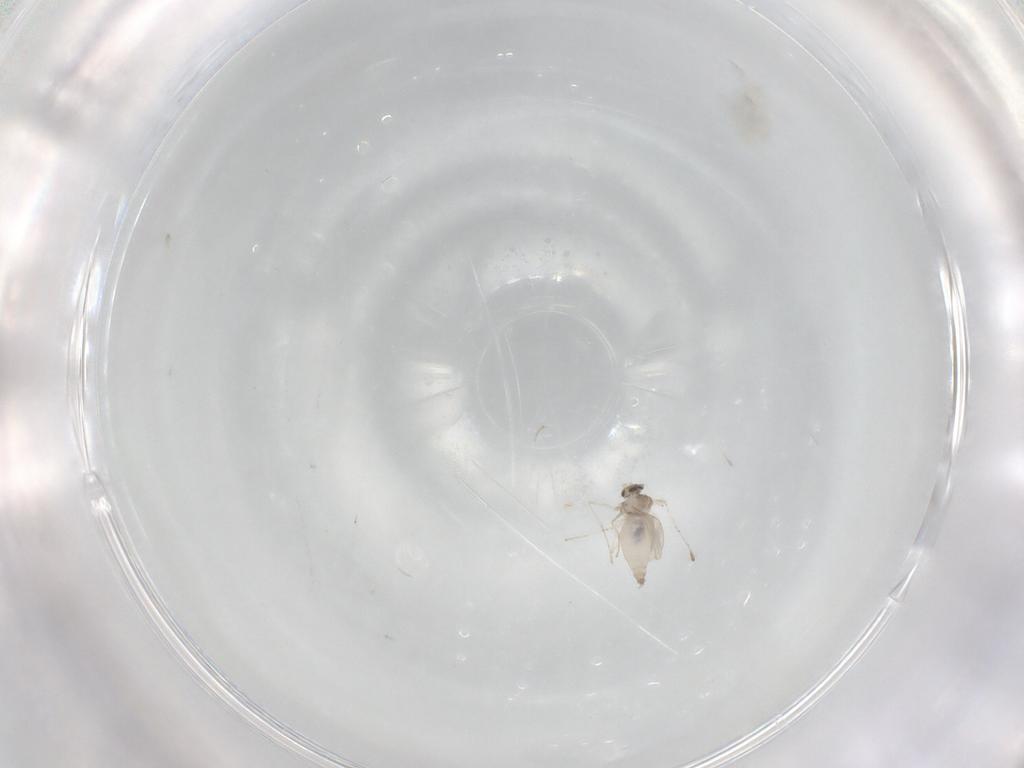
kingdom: Animalia
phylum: Arthropoda
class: Insecta
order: Diptera
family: Cecidomyiidae
